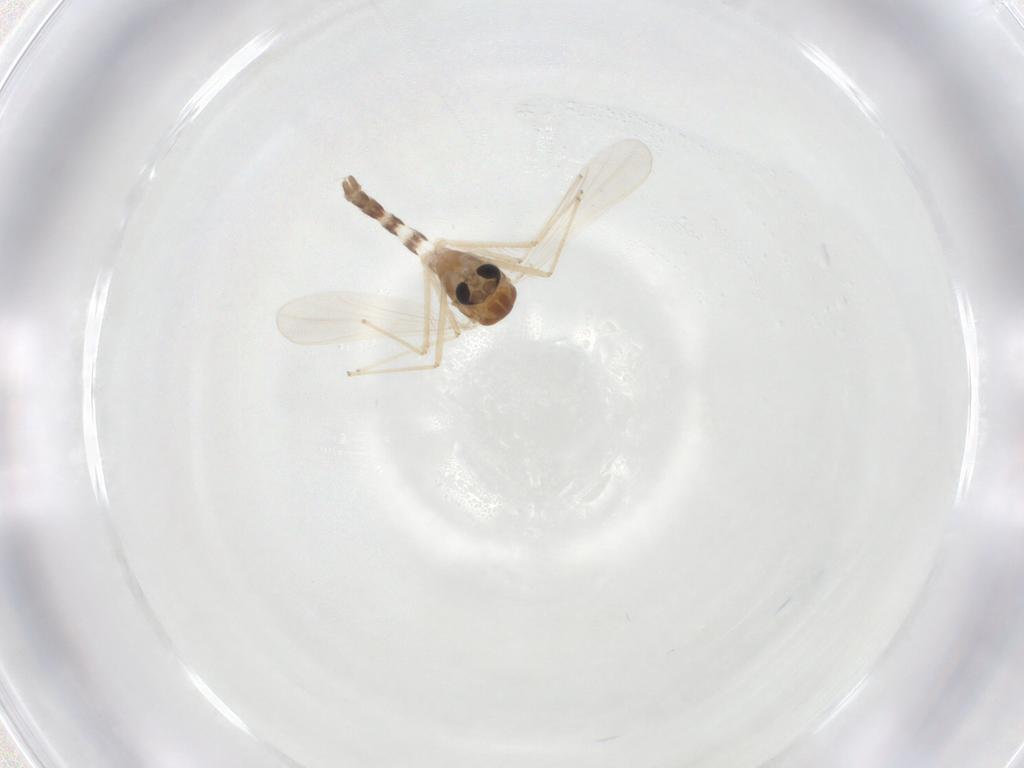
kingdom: Animalia
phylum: Arthropoda
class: Insecta
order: Diptera
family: Chironomidae
